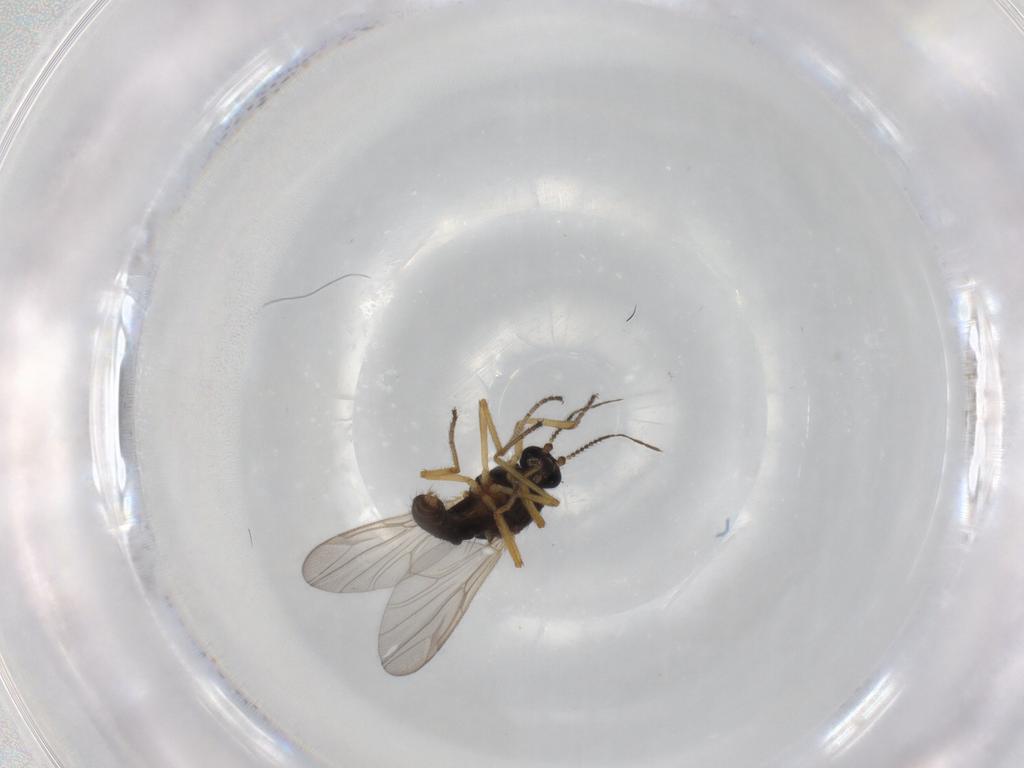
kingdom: Animalia
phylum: Arthropoda
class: Insecta
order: Diptera
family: Ceratopogonidae
